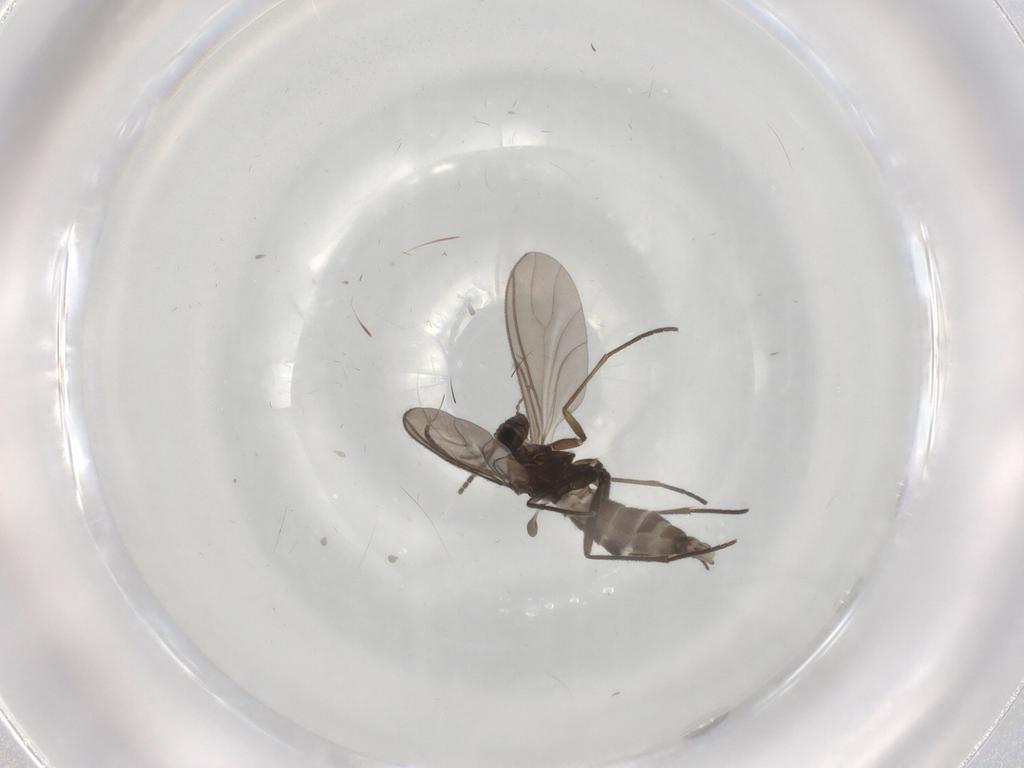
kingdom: Animalia
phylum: Arthropoda
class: Insecta
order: Diptera
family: Sciaridae
